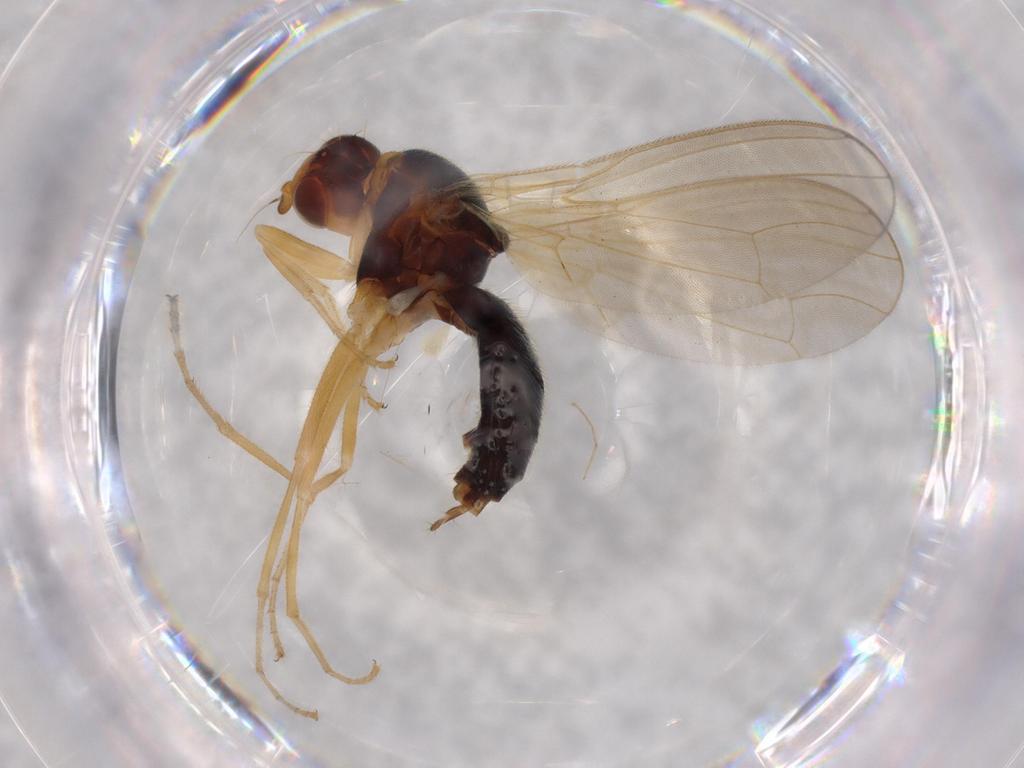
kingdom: Animalia
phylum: Arthropoda
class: Insecta
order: Diptera
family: Chironomidae
